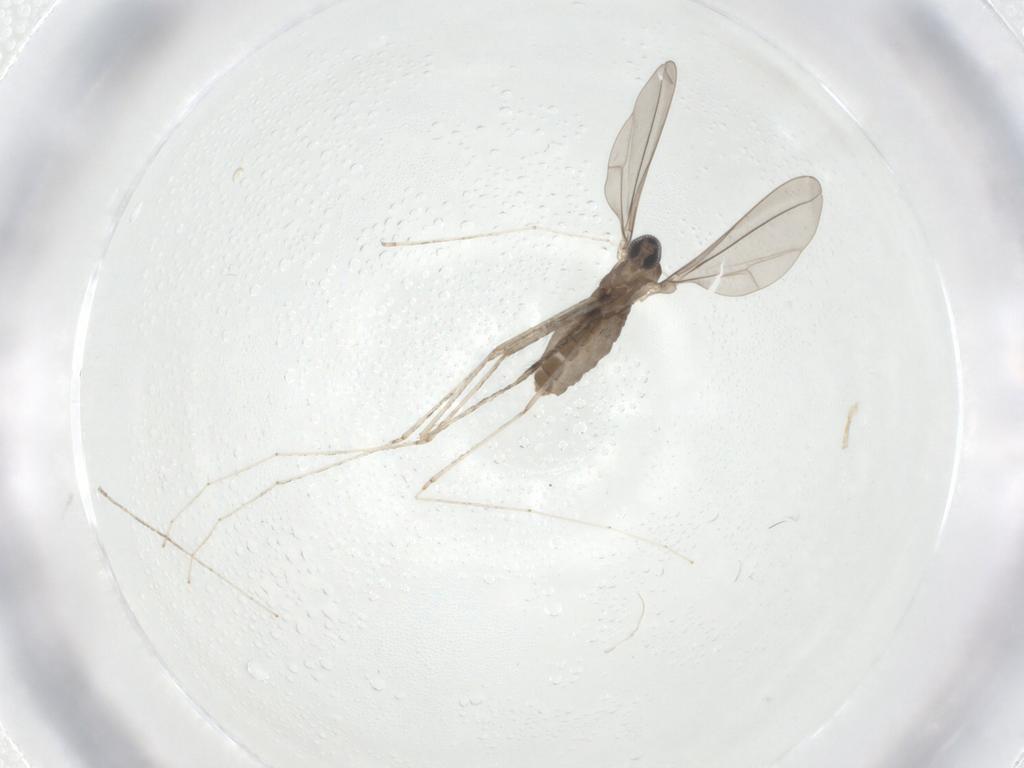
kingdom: Animalia
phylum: Arthropoda
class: Insecta
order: Diptera
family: Cecidomyiidae
